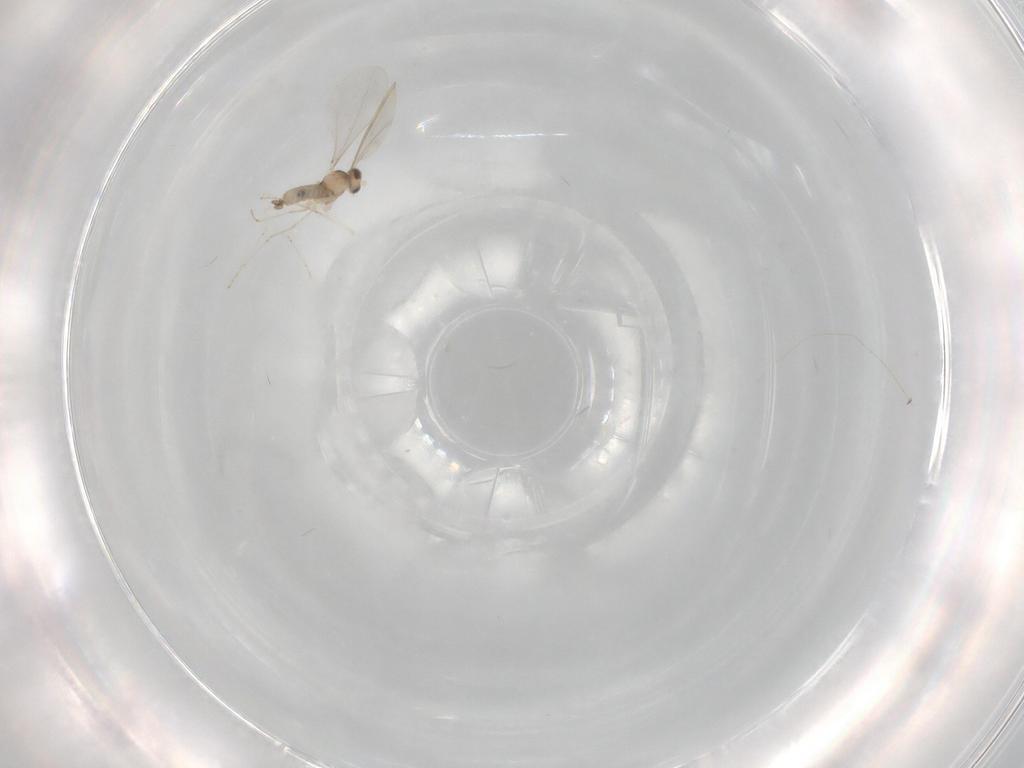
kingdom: Animalia
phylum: Arthropoda
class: Insecta
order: Diptera
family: Cecidomyiidae
